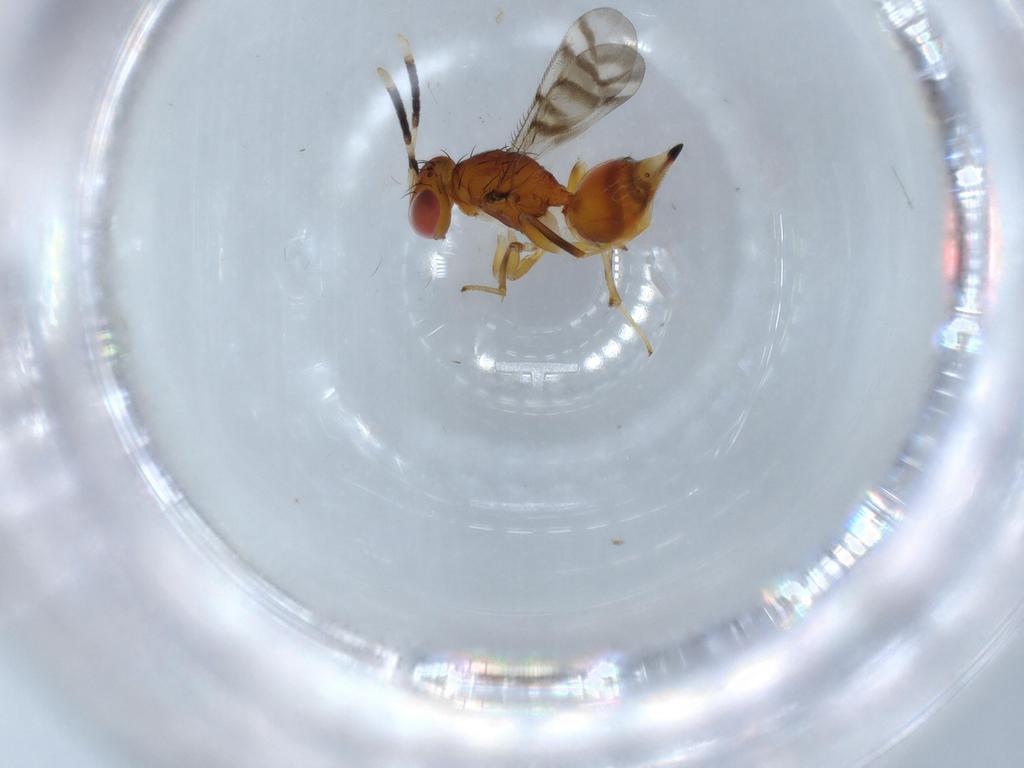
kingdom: Animalia
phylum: Arthropoda
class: Insecta
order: Hymenoptera
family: Diparidae
